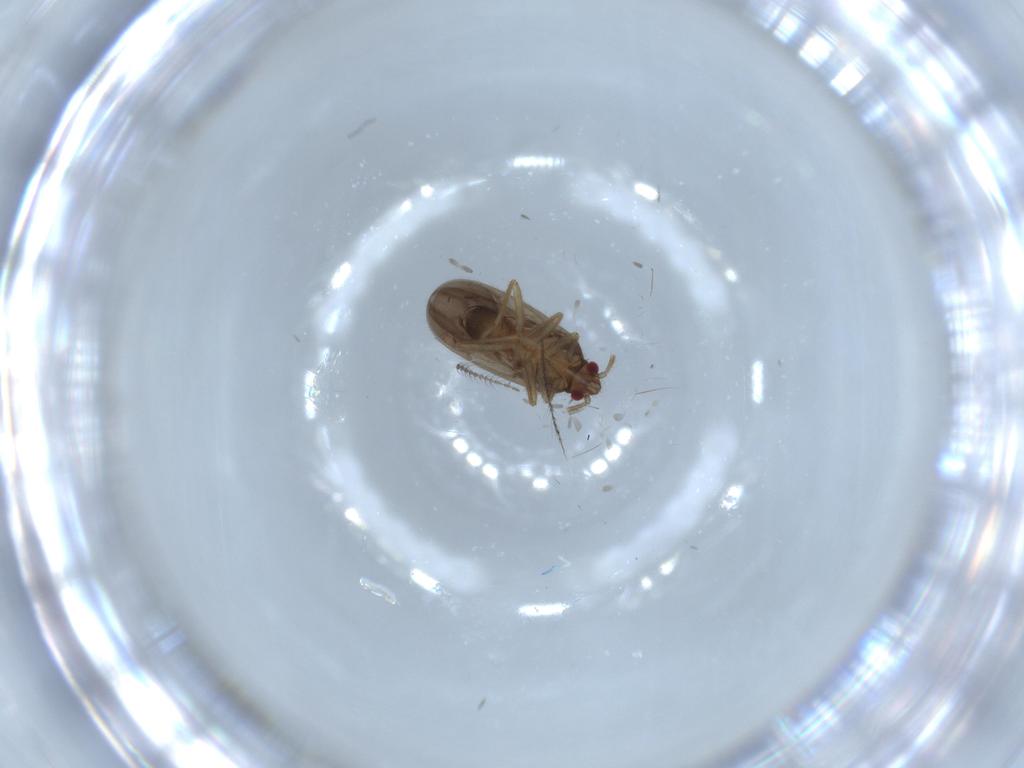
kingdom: Animalia
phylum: Arthropoda
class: Insecta
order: Hemiptera
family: Ceratocombidae
